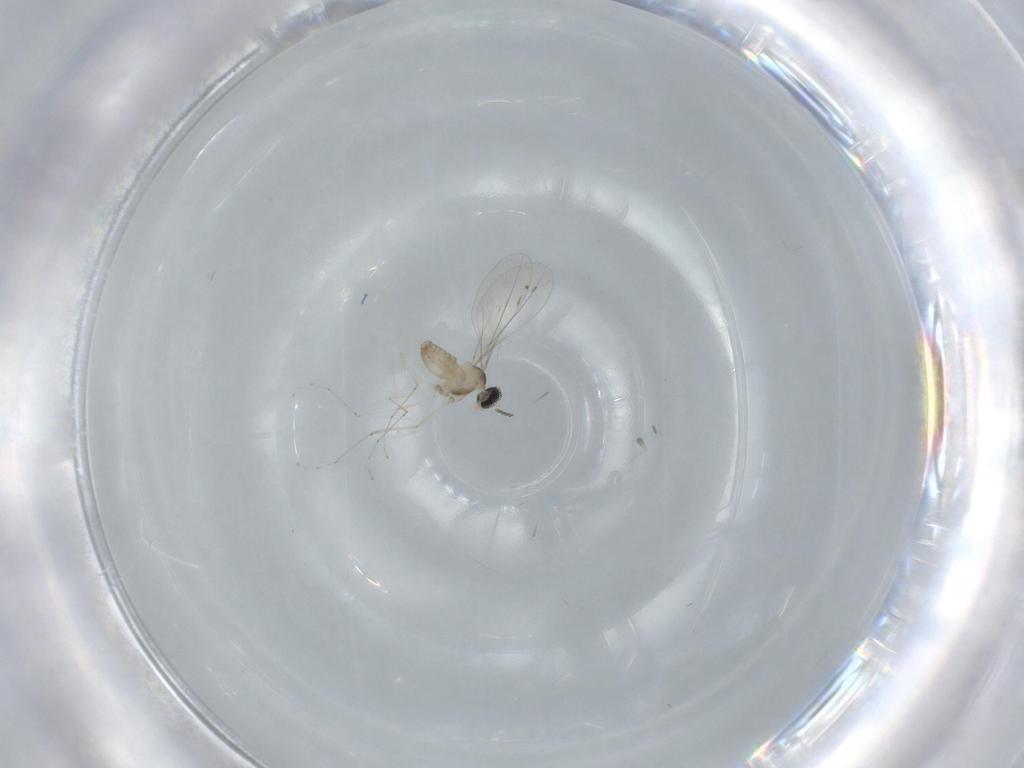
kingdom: Animalia
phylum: Arthropoda
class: Insecta
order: Diptera
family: Cecidomyiidae
